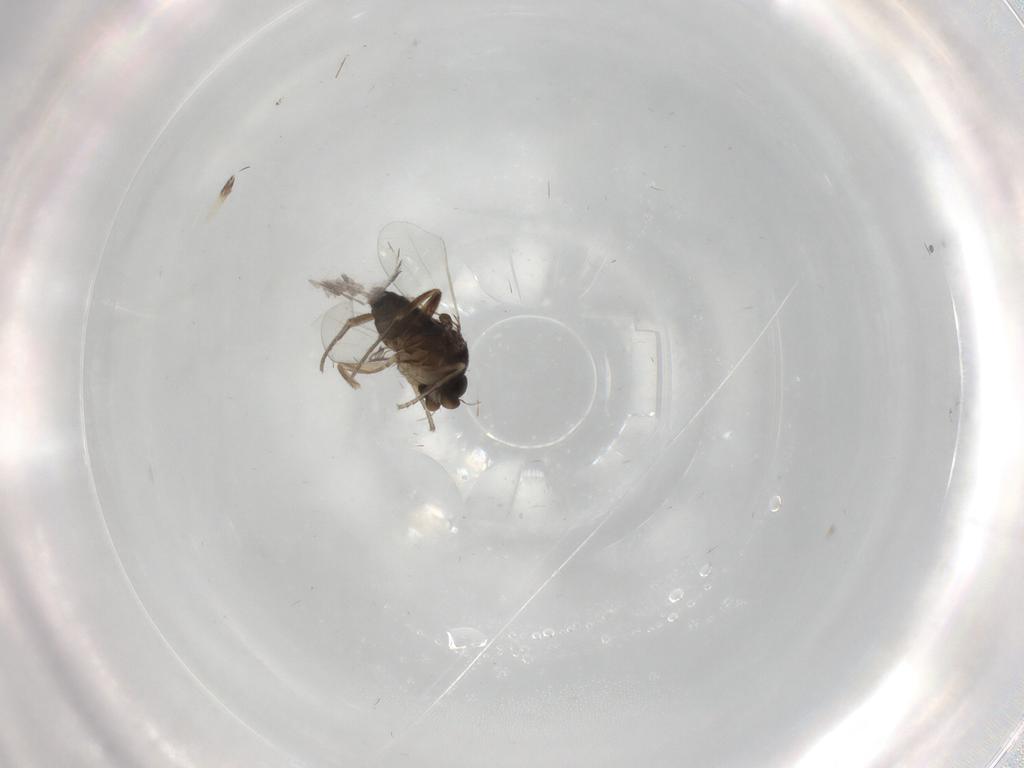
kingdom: Animalia
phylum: Arthropoda
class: Insecta
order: Diptera
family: Phoridae
